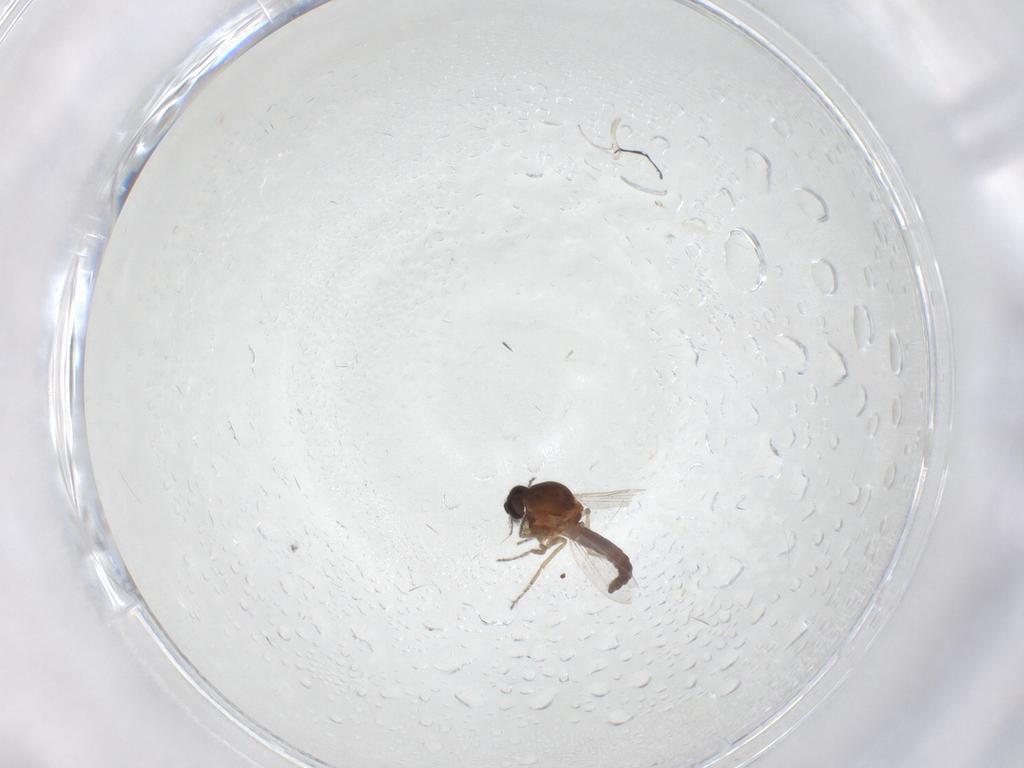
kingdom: Animalia
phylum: Arthropoda
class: Insecta
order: Diptera
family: Ceratopogonidae
